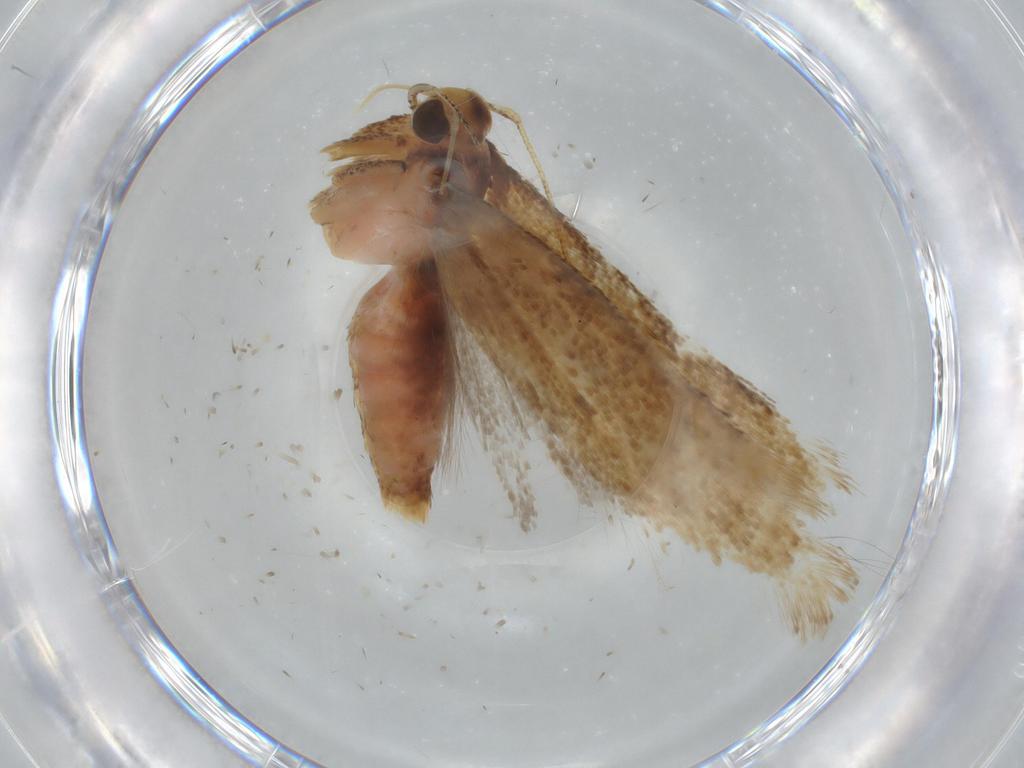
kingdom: Animalia
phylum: Arthropoda
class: Insecta
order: Lepidoptera
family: Gelechiidae
